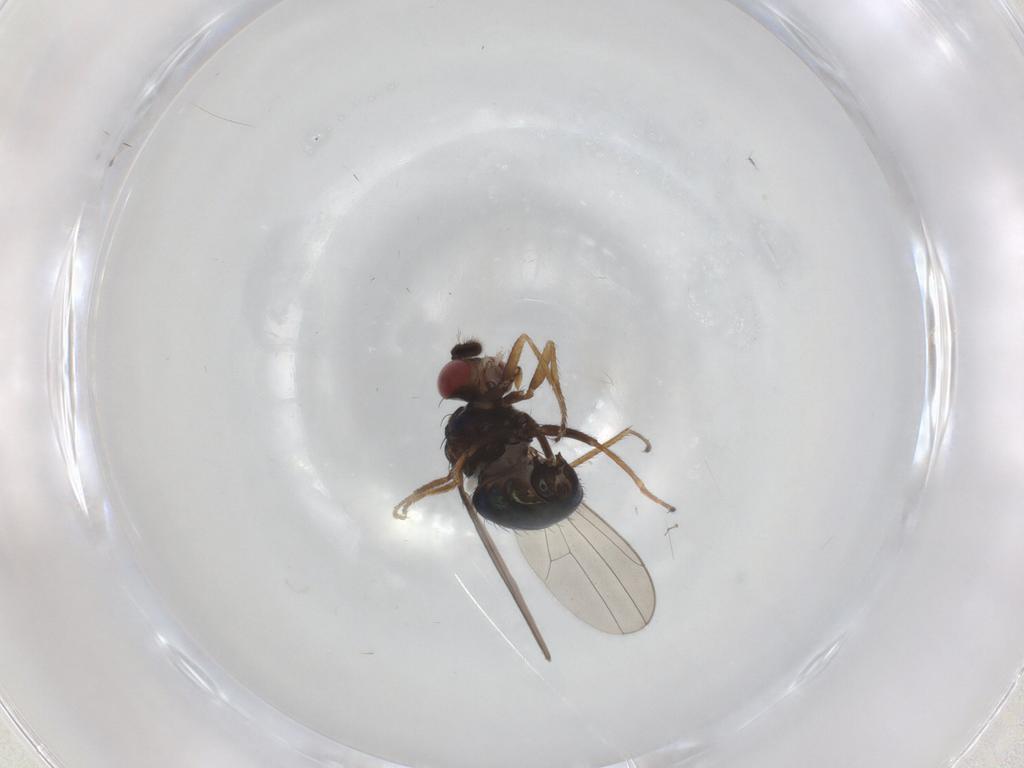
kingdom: Animalia
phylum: Arthropoda
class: Insecta
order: Diptera
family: Ephydridae
